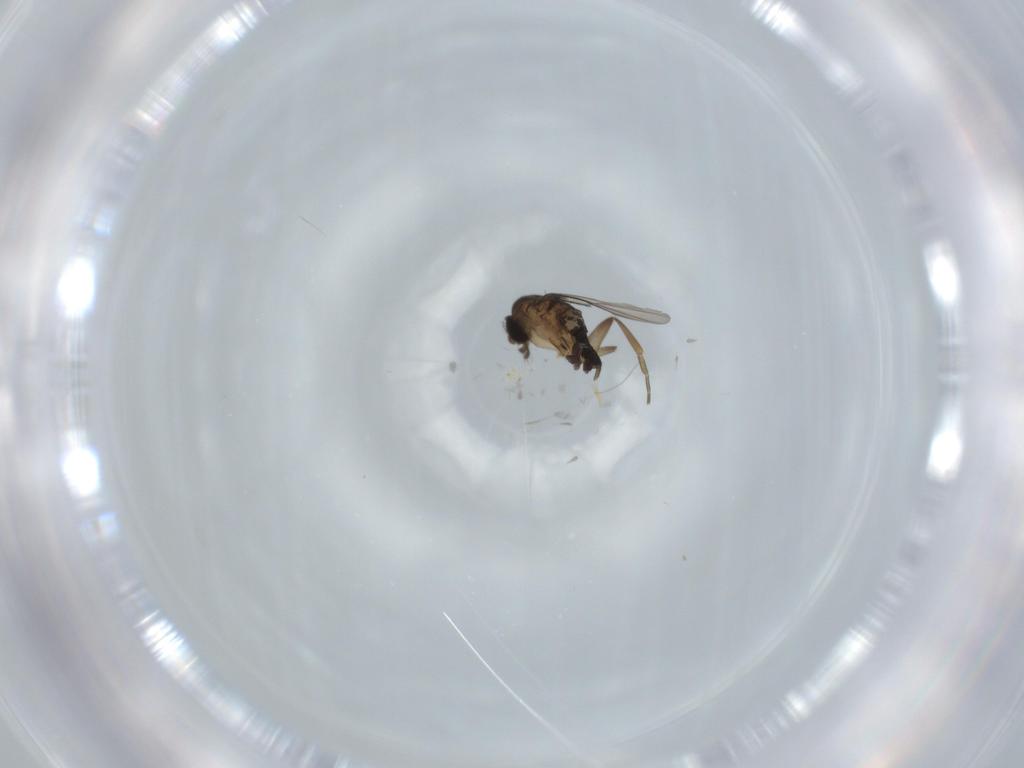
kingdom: Animalia
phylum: Arthropoda
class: Insecta
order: Diptera
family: Phoridae
